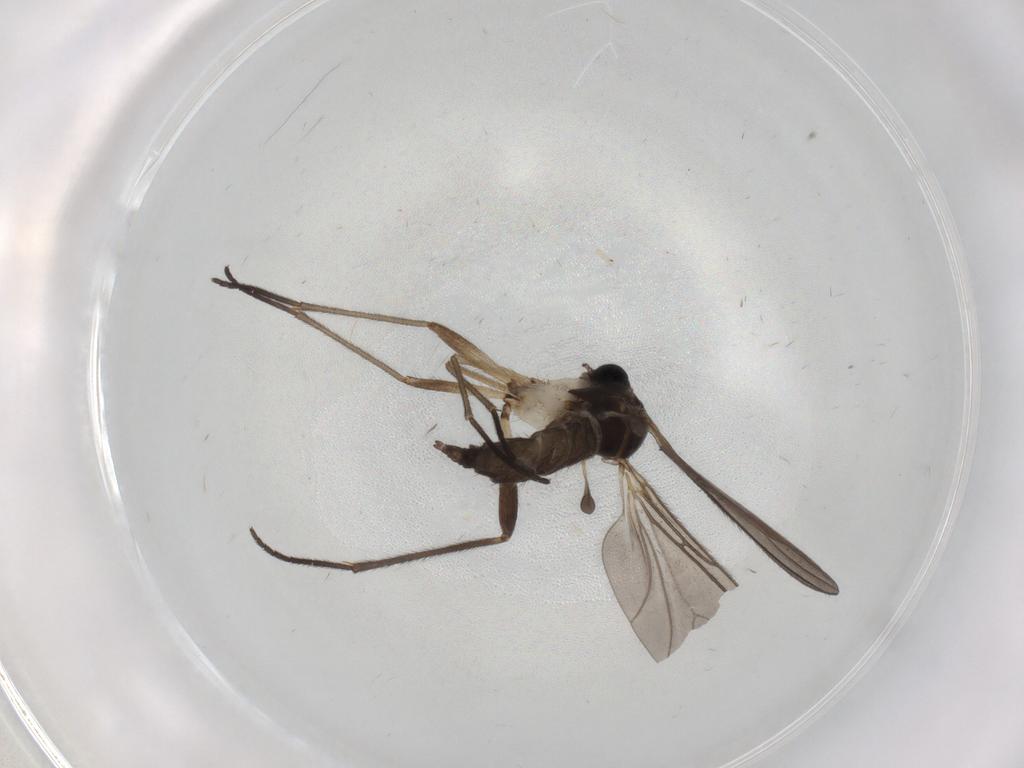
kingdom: Animalia
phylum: Arthropoda
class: Insecta
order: Diptera
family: Sciaridae
